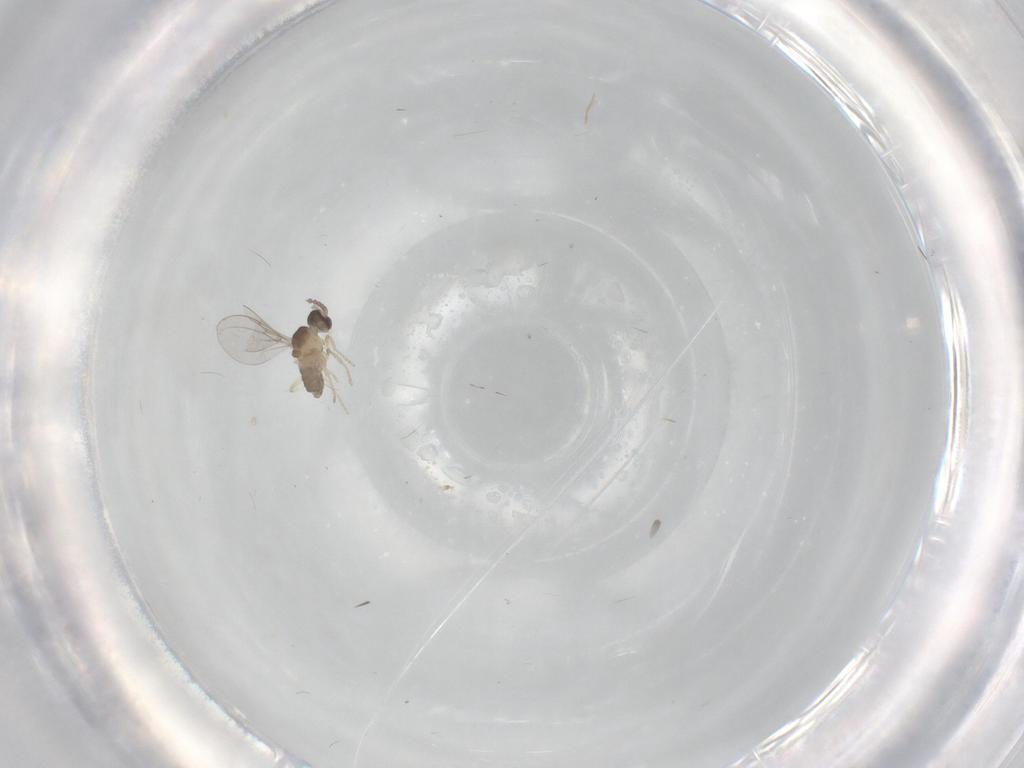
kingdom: Animalia
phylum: Arthropoda
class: Insecta
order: Diptera
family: Cecidomyiidae
